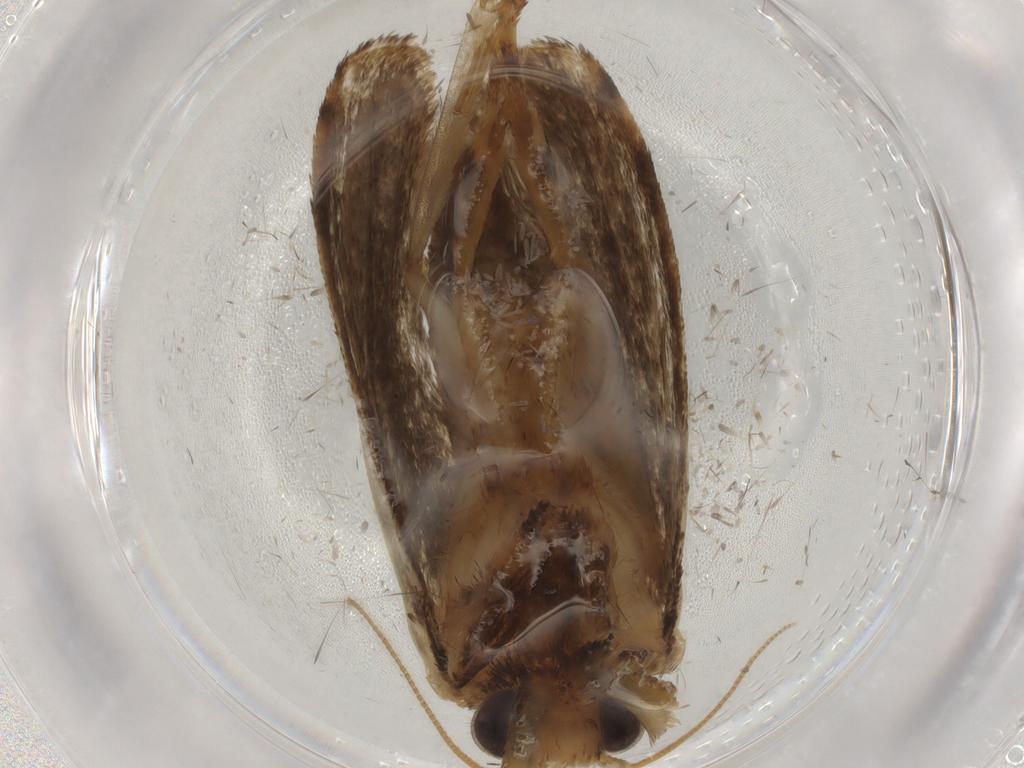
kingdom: Animalia
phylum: Arthropoda
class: Insecta
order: Lepidoptera
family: Tineidae
